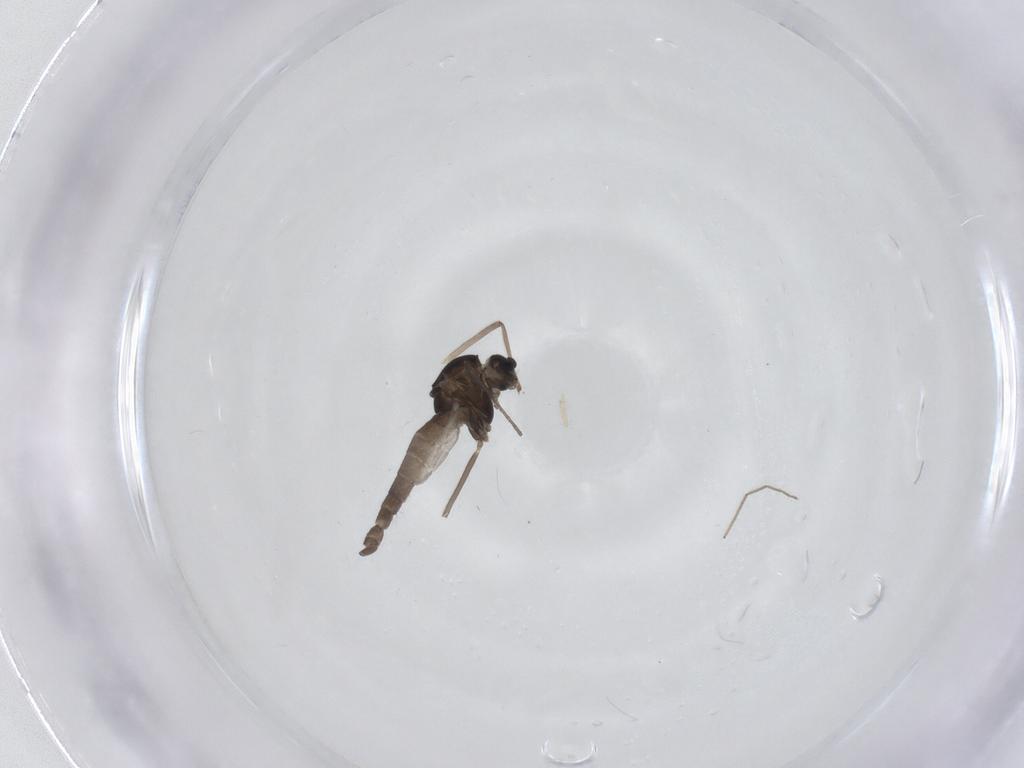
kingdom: Animalia
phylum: Arthropoda
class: Insecta
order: Diptera
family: Chironomidae
